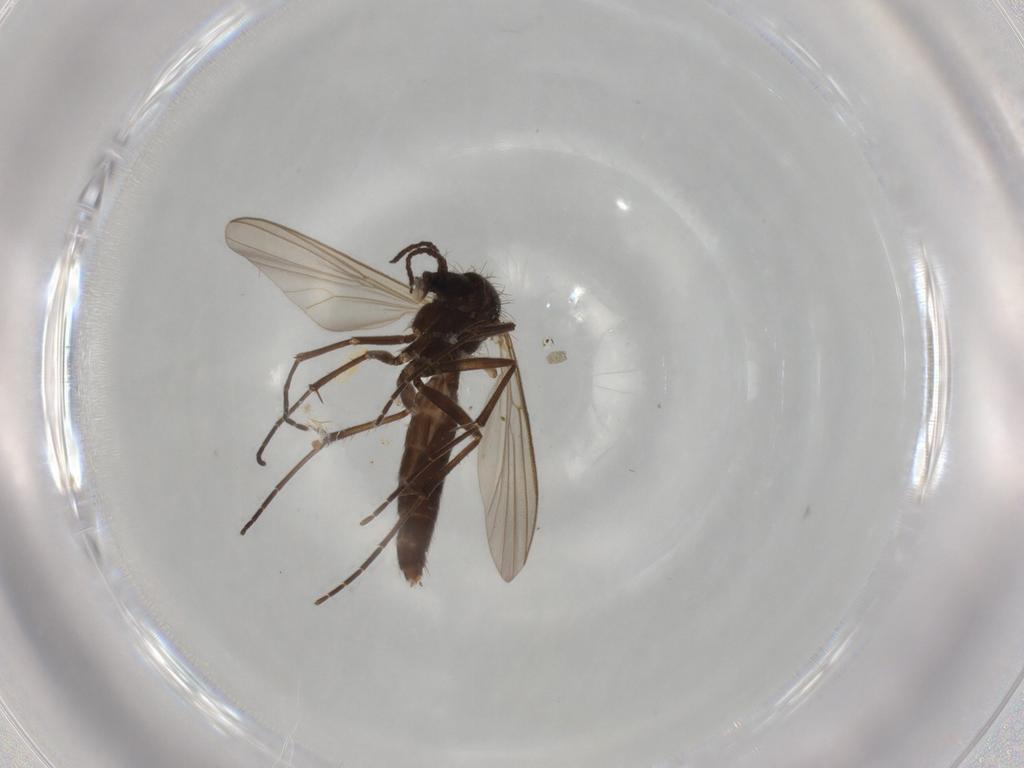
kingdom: Animalia
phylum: Arthropoda
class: Insecta
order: Diptera
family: Mycetophilidae
